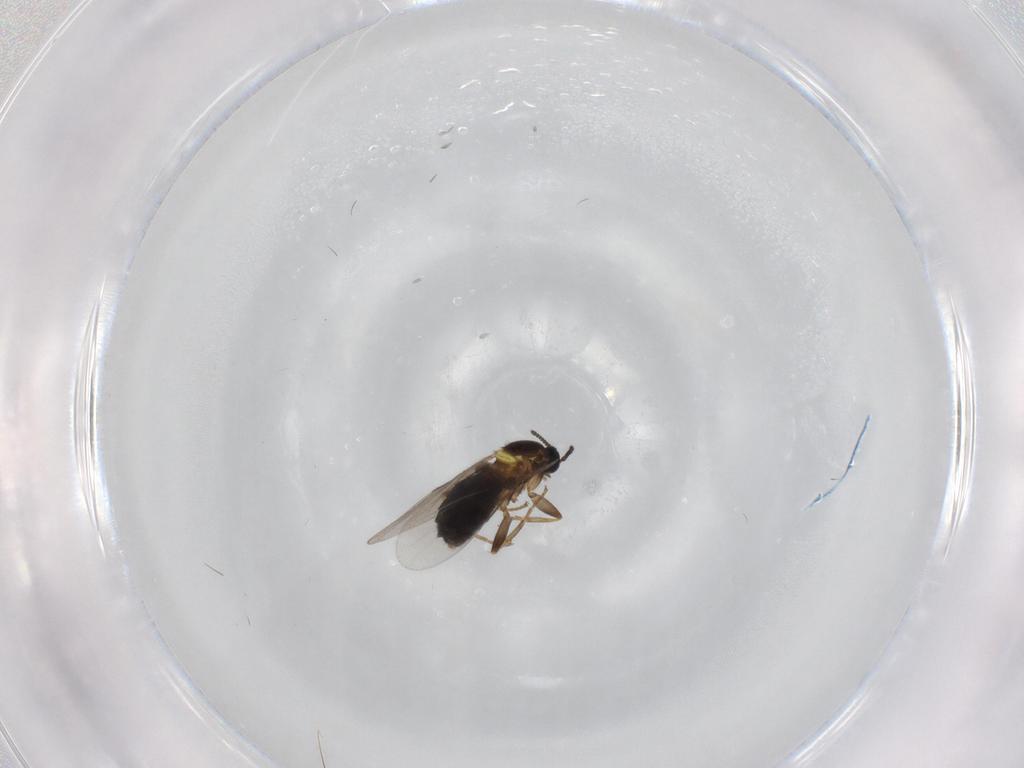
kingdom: Animalia
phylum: Arthropoda
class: Insecta
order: Diptera
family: Scatopsidae
